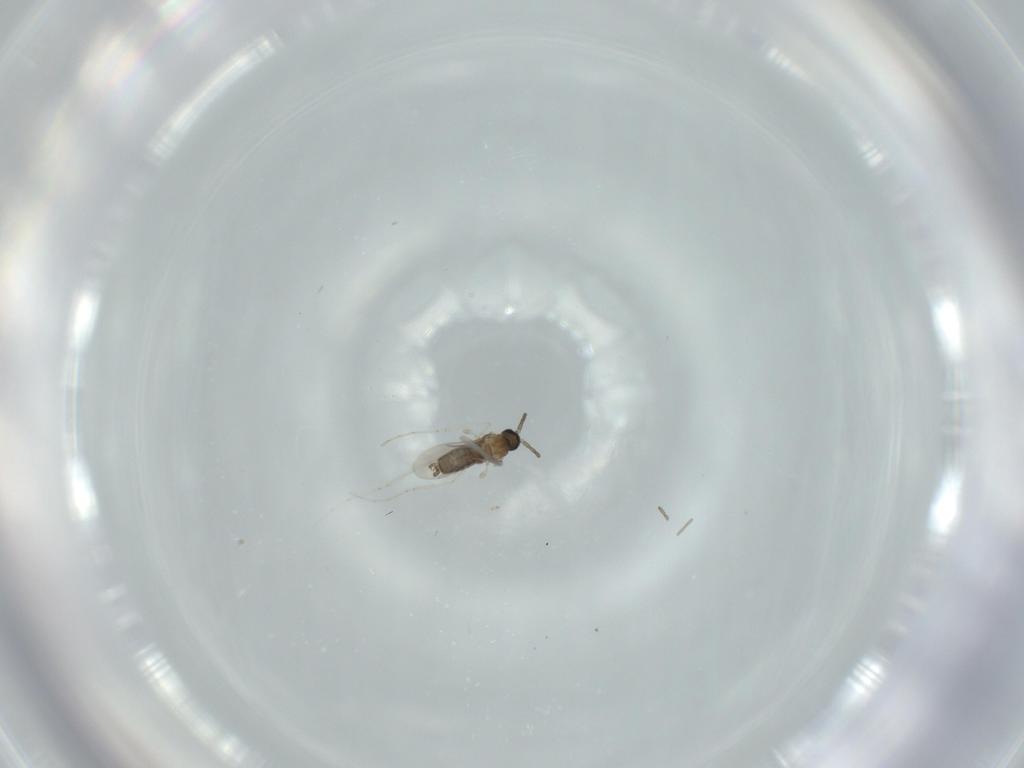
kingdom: Animalia
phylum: Arthropoda
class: Insecta
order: Diptera
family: Cecidomyiidae
